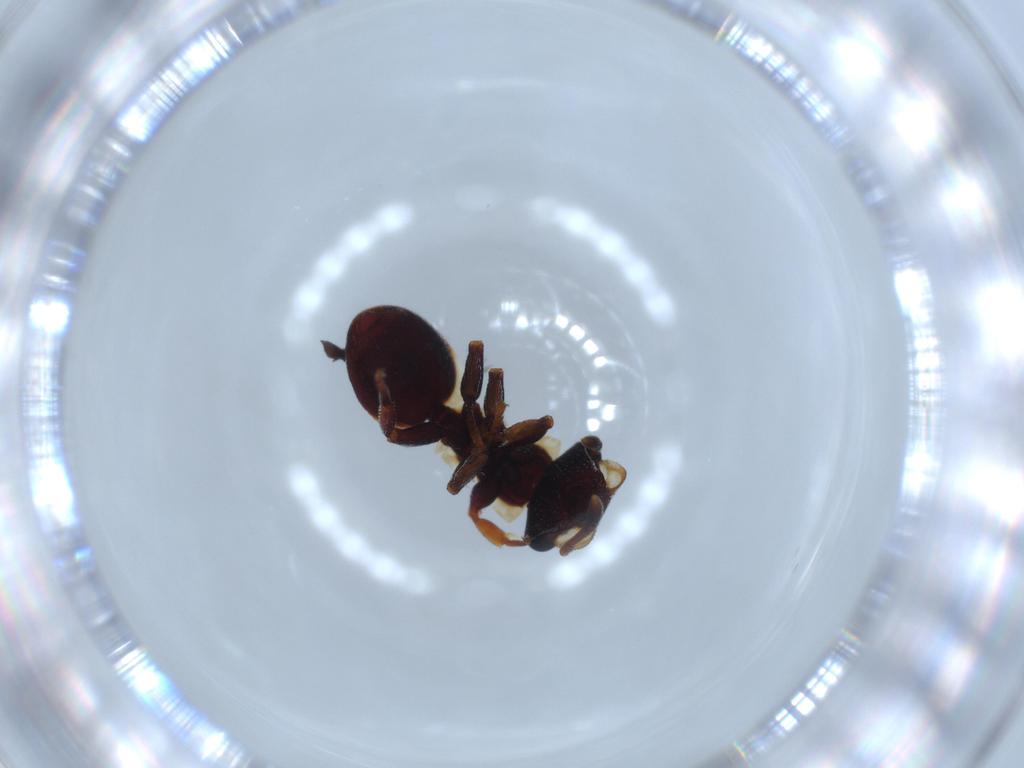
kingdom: Animalia
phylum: Arthropoda
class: Insecta
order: Hymenoptera
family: Formicidae
